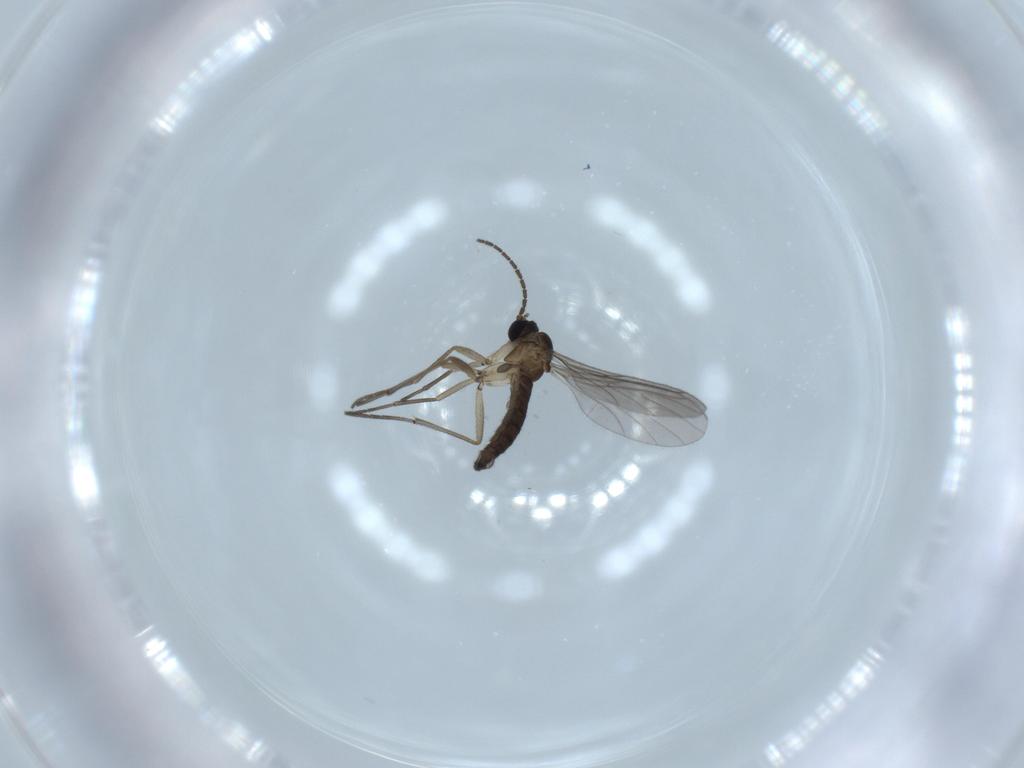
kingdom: Animalia
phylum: Arthropoda
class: Insecta
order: Diptera
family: Sciaridae
